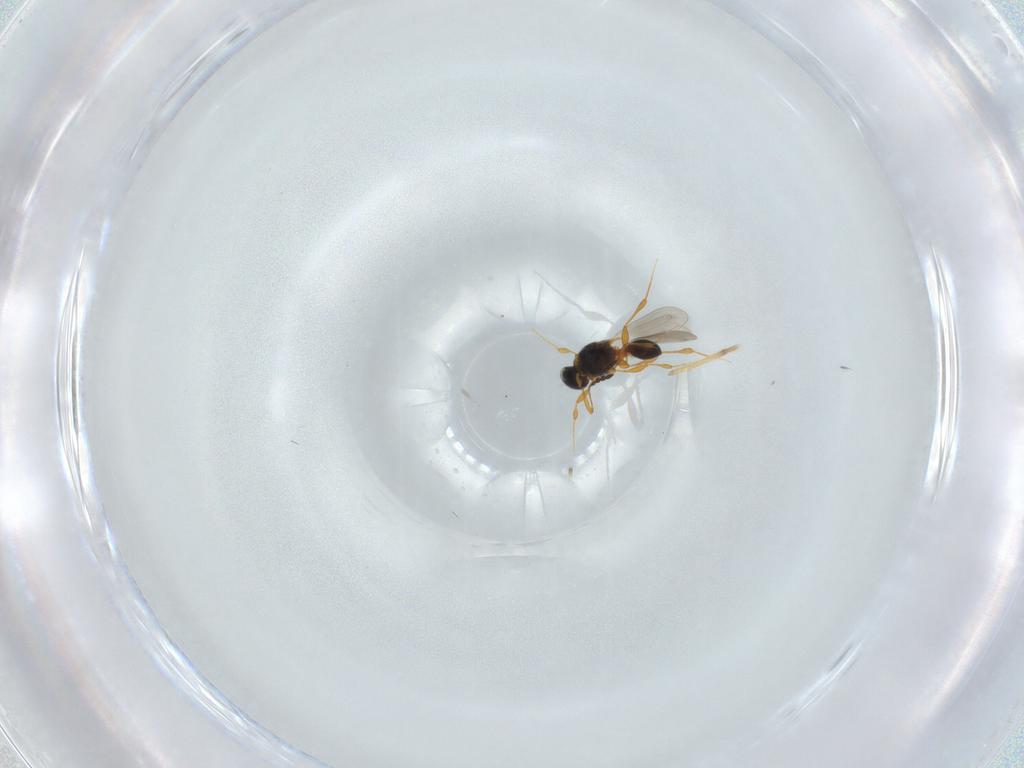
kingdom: Animalia
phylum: Arthropoda
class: Insecta
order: Hymenoptera
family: Platygastridae
